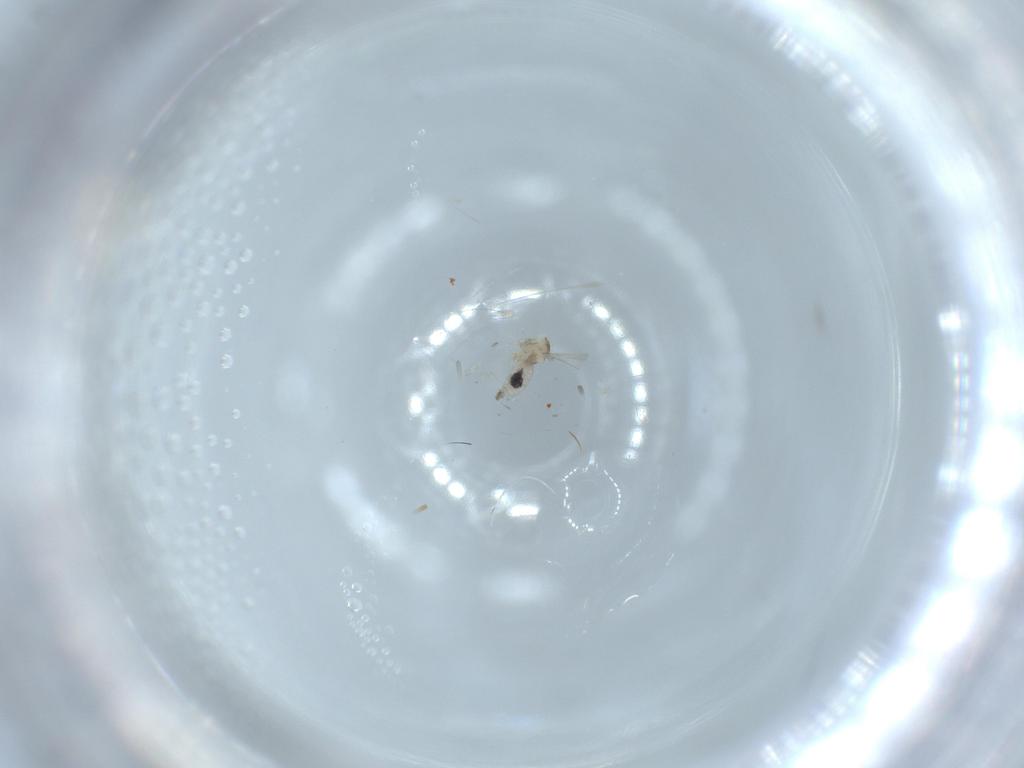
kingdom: Animalia
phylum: Arthropoda
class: Insecta
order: Diptera
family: Cecidomyiidae
